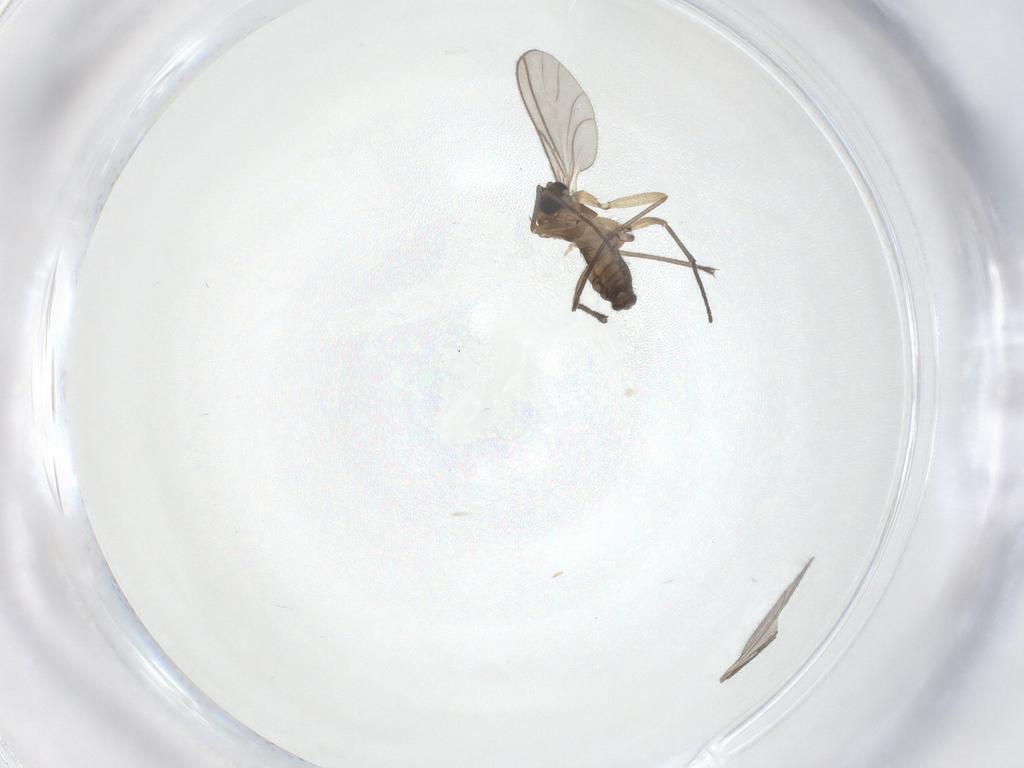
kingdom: Animalia
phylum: Arthropoda
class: Insecta
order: Diptera
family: Sciaridae
